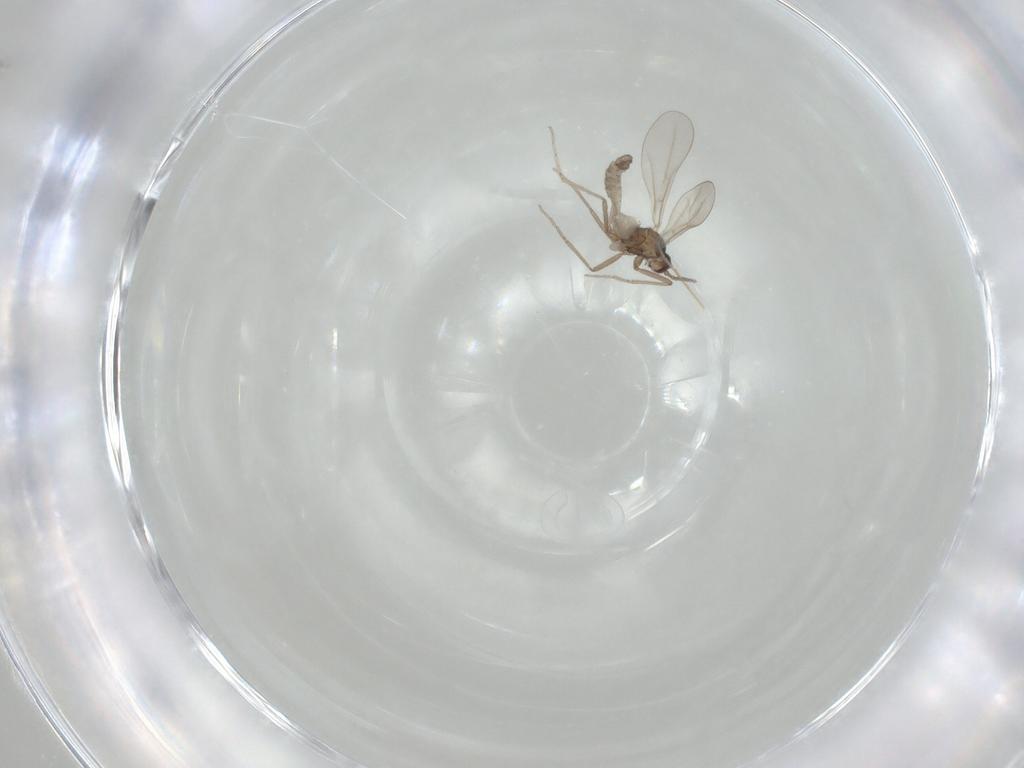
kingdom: Animalia
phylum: Arthropoda
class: Insecta
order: Diptera
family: Chironomidae
